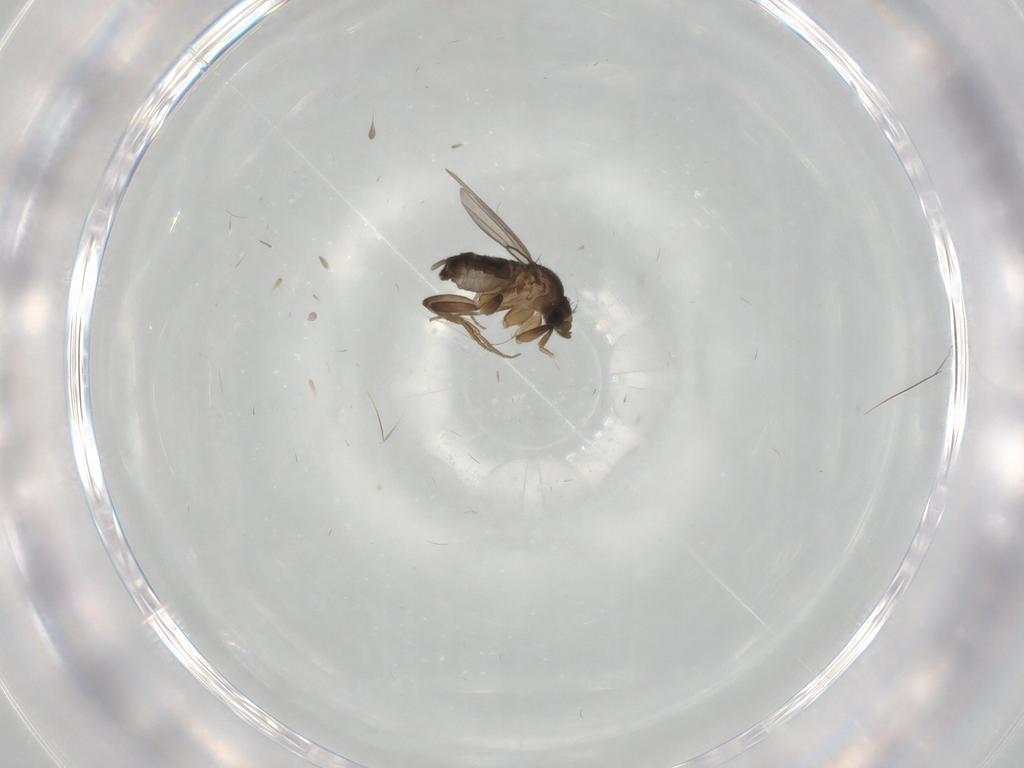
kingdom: Animalia
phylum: Arthropoda
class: Insecta
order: Diptera
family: Phoridae
